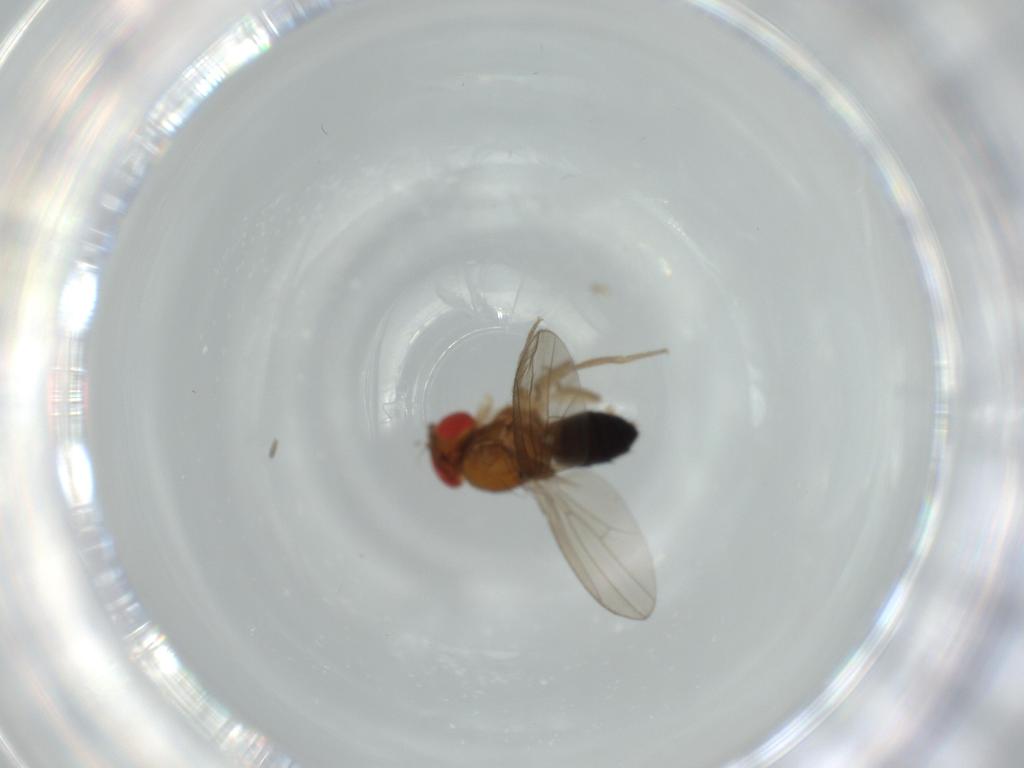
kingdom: Animalia
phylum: Arthropoda
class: Insecta
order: Diptera
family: Drosophilidae
